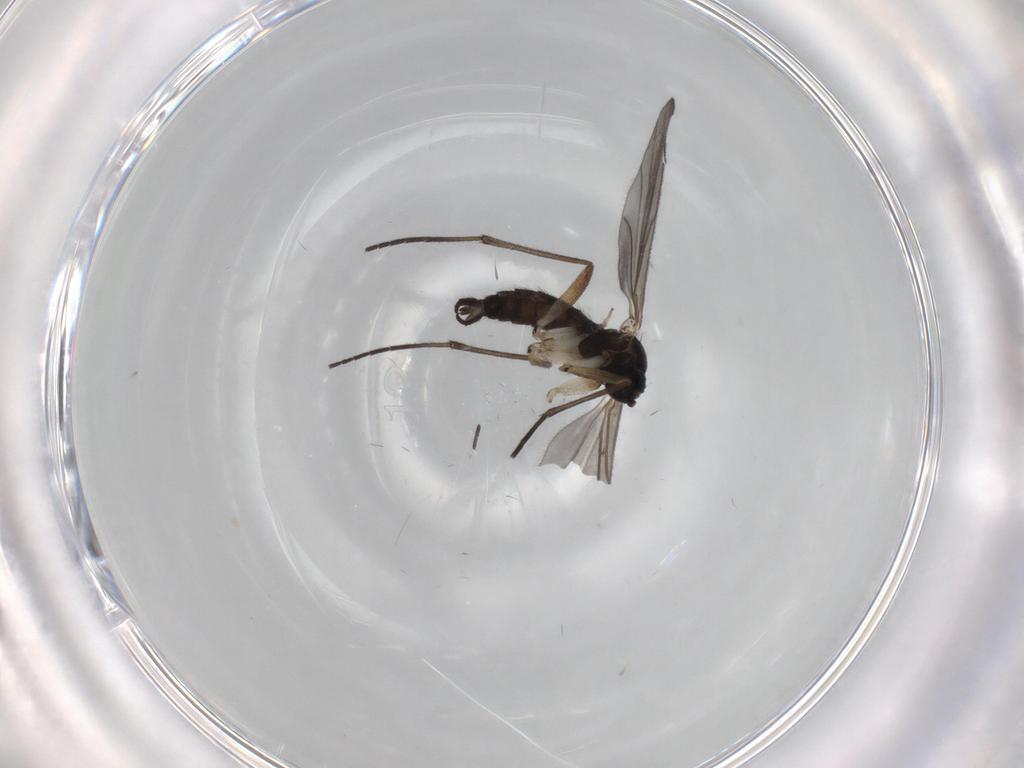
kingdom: Animalia
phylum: Arthropoda
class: Insecta
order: Diptera
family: Sciaridae
